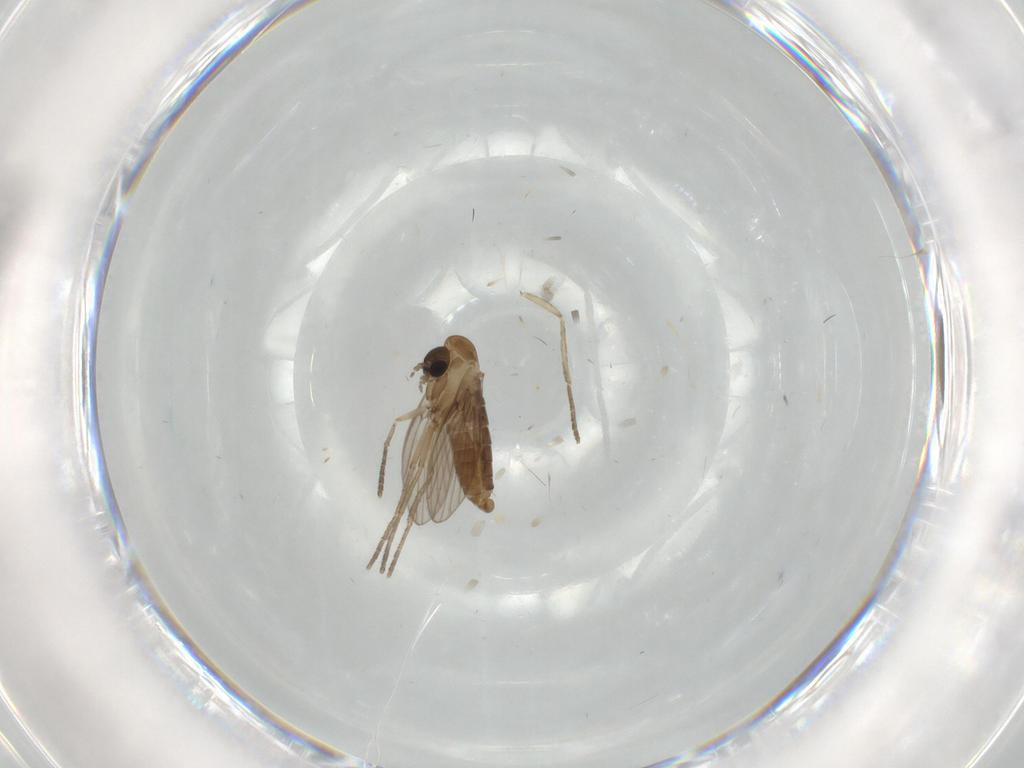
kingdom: Animalia
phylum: Arthropoda
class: Insecta
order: Diptera
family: Psychodidae
